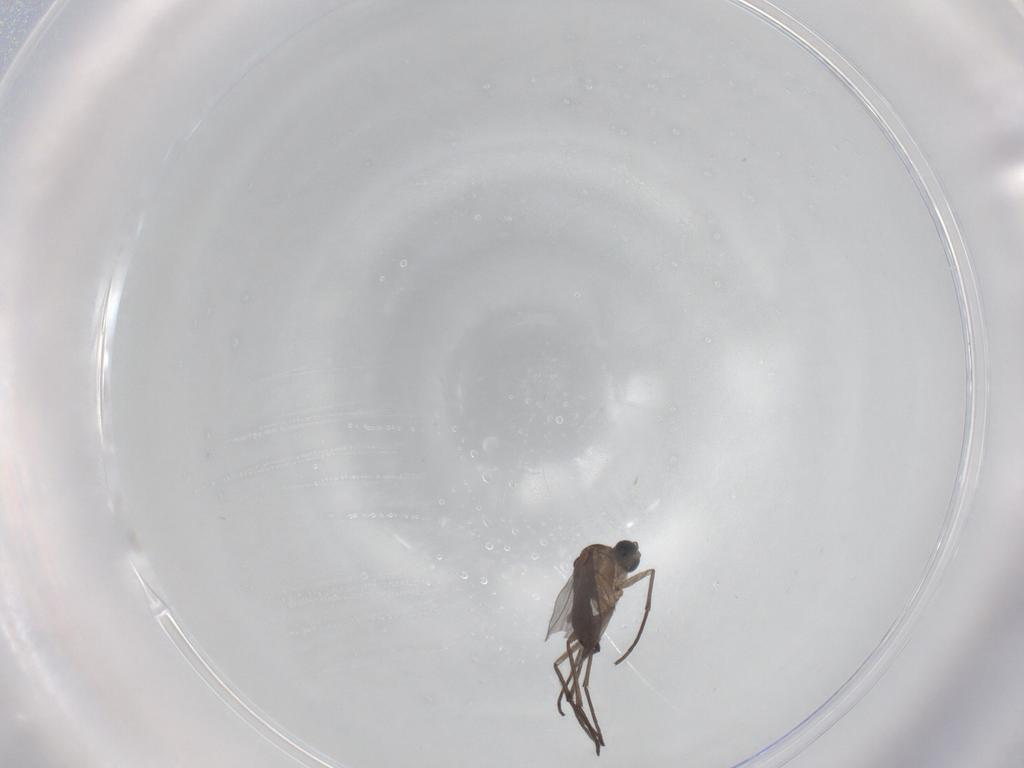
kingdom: Animalia
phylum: Arthropoda
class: Insecta
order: Diptera
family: Sciaridae
